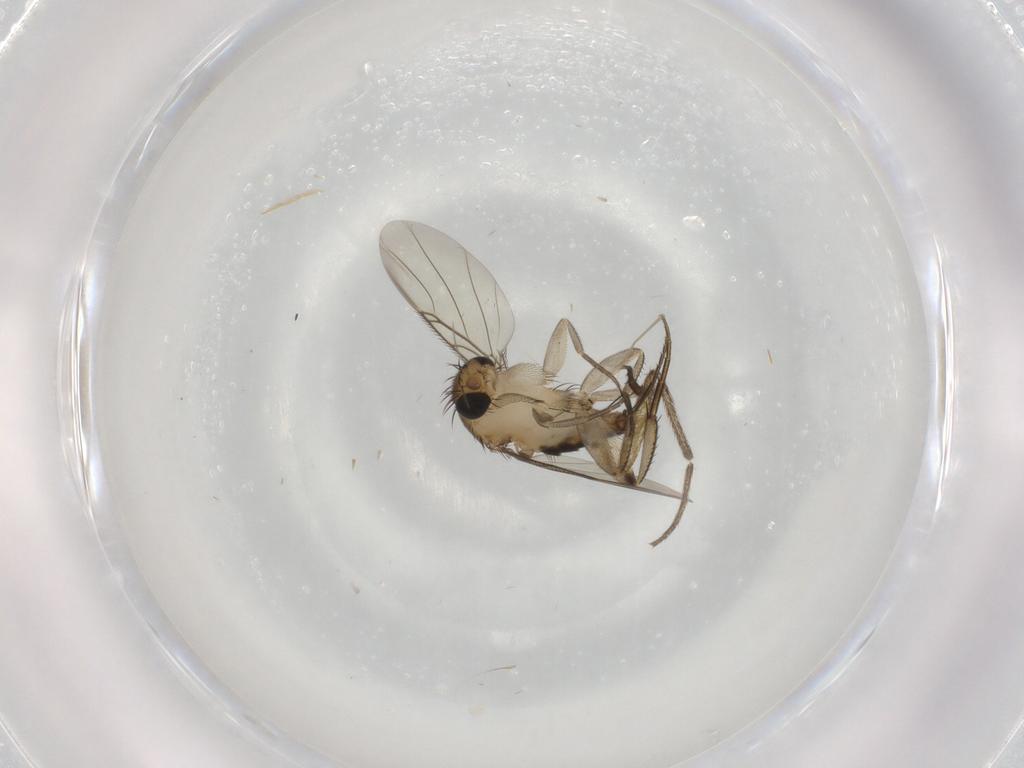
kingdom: Animalia
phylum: Arthropoda
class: Insecta
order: Diptera
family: Phoridae
